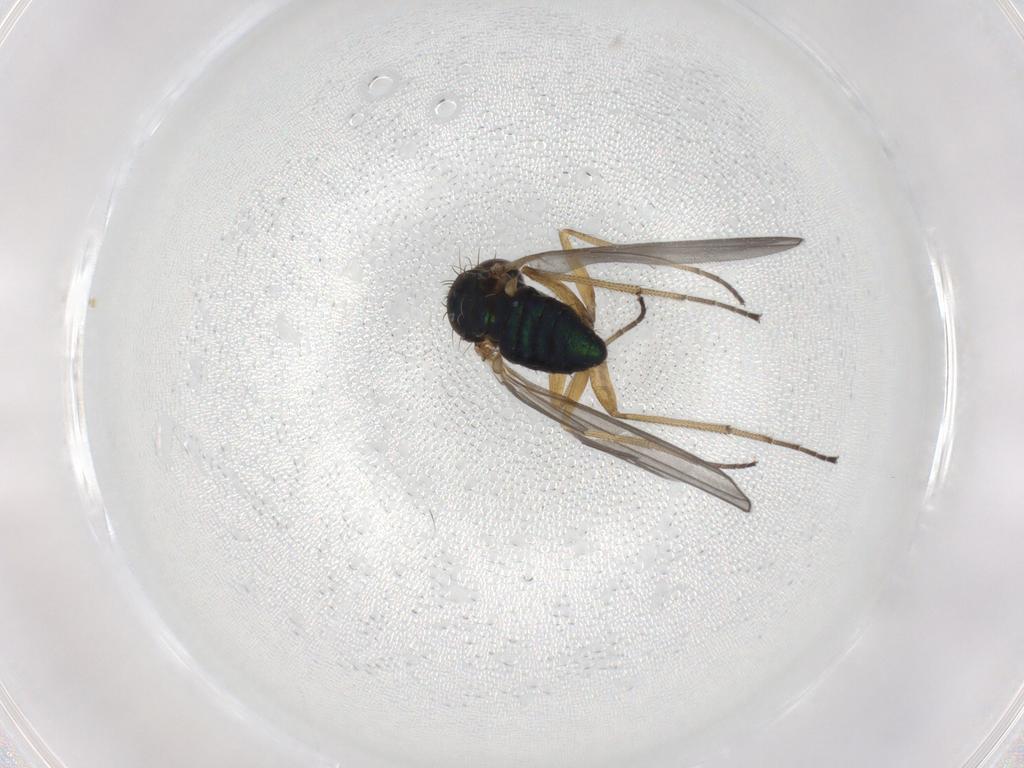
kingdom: Animalia
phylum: Arthropoda
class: Insecta
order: Diptera
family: Dolichopodidae
